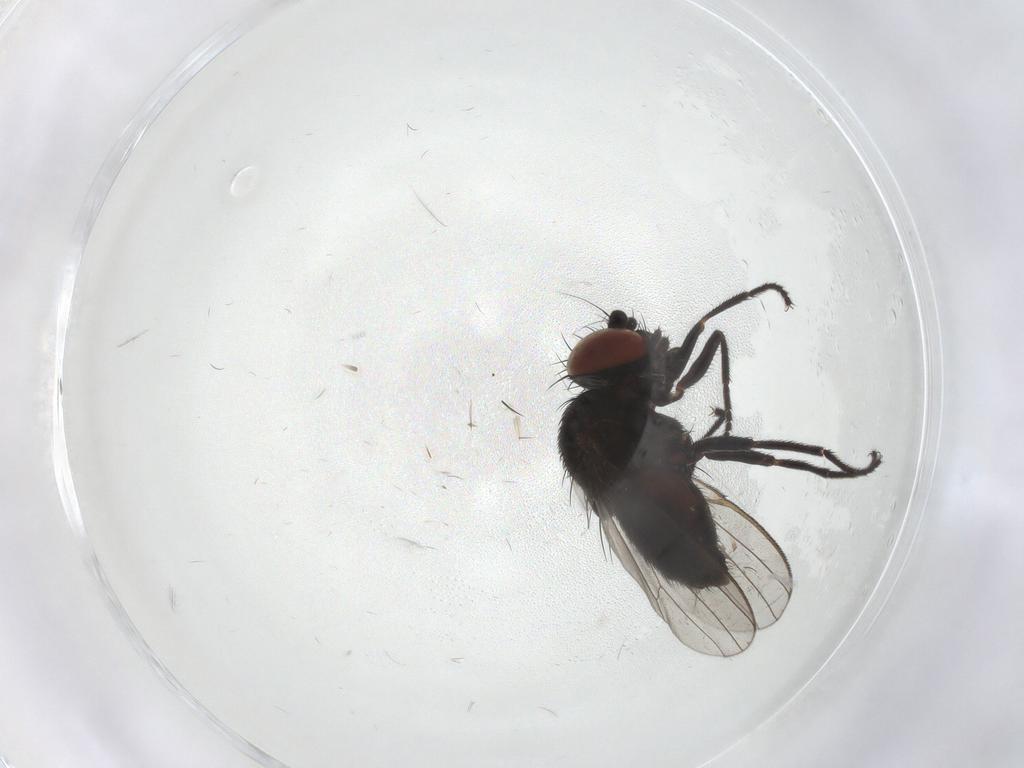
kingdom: Animalia
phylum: Arthropoda
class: Insecta
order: Diptera
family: Milichiidae
